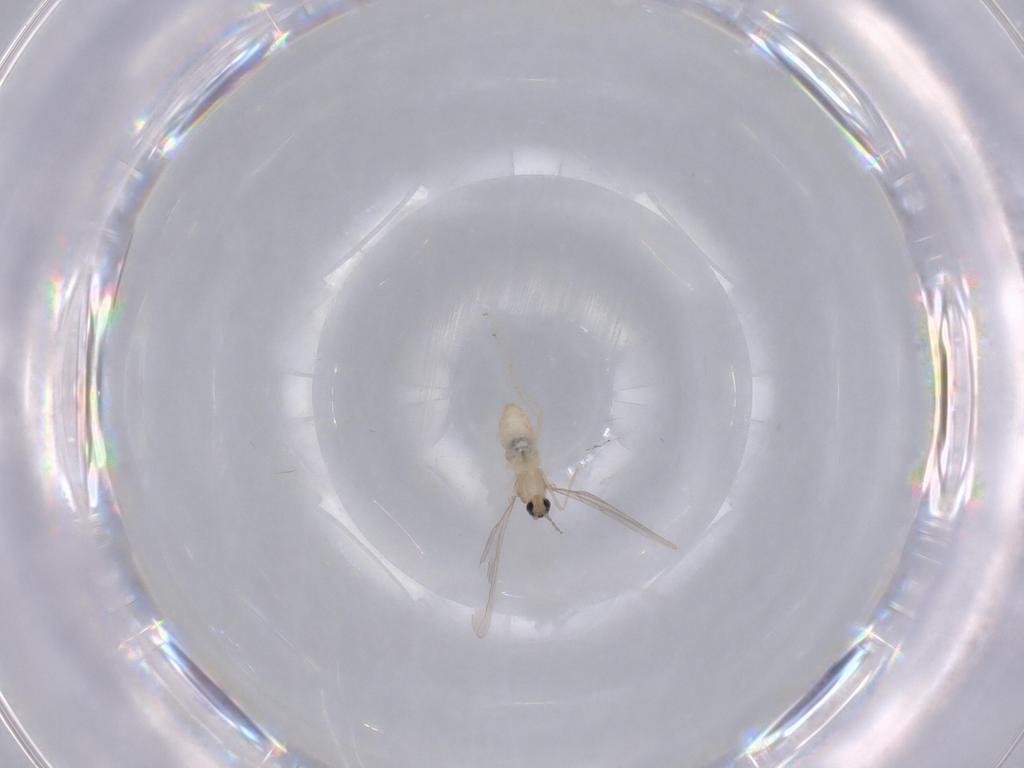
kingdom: Animalia
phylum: Arthropoda
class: Insecta
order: Diptera
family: Cecidomyiidae
